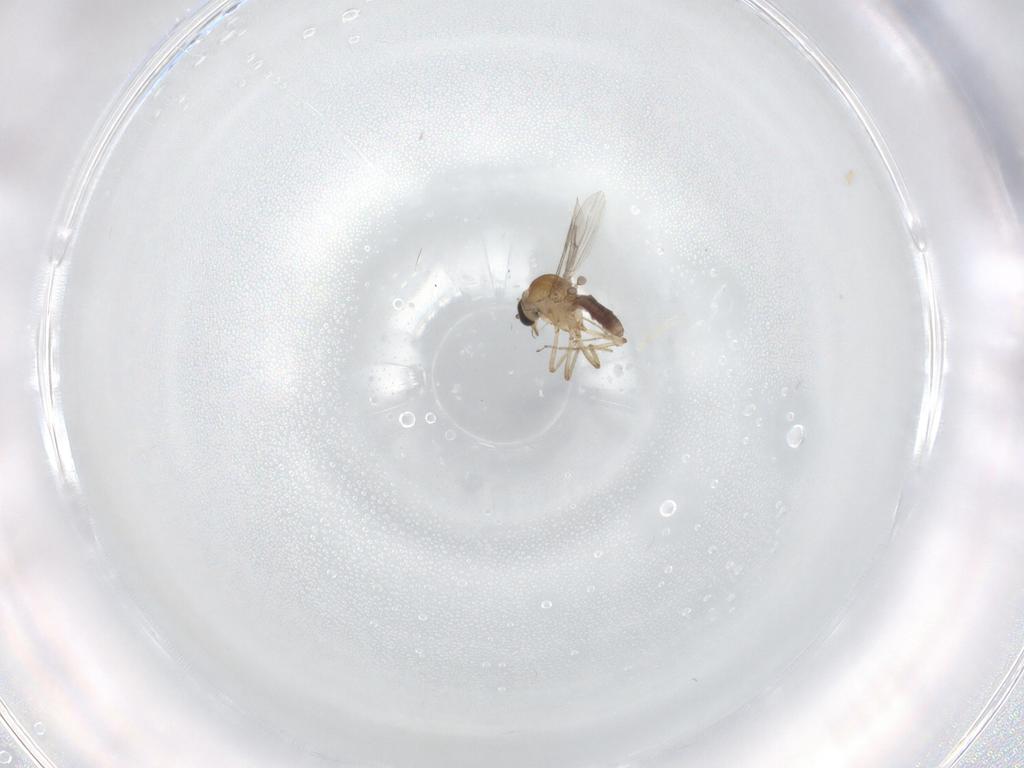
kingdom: Animalia
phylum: Arthropoda
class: Insecta
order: Diptera
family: Ceratopogonidae
